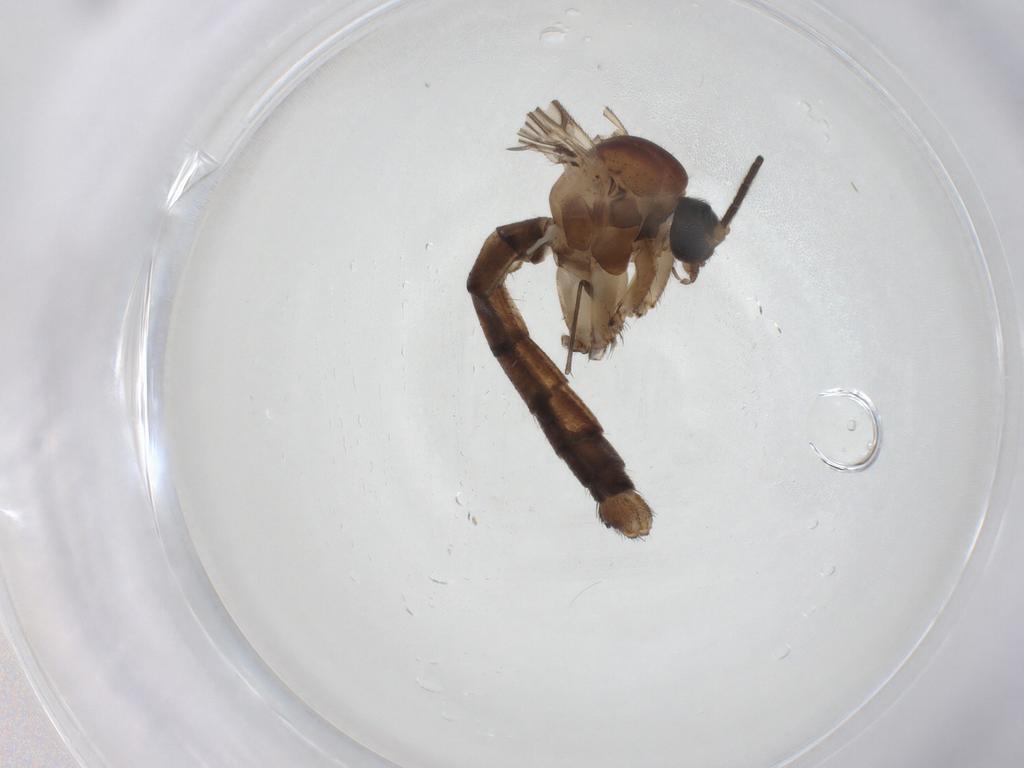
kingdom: Animalia
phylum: Arthropoda
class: Insecta
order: Diptera
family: Mycetophilidae
